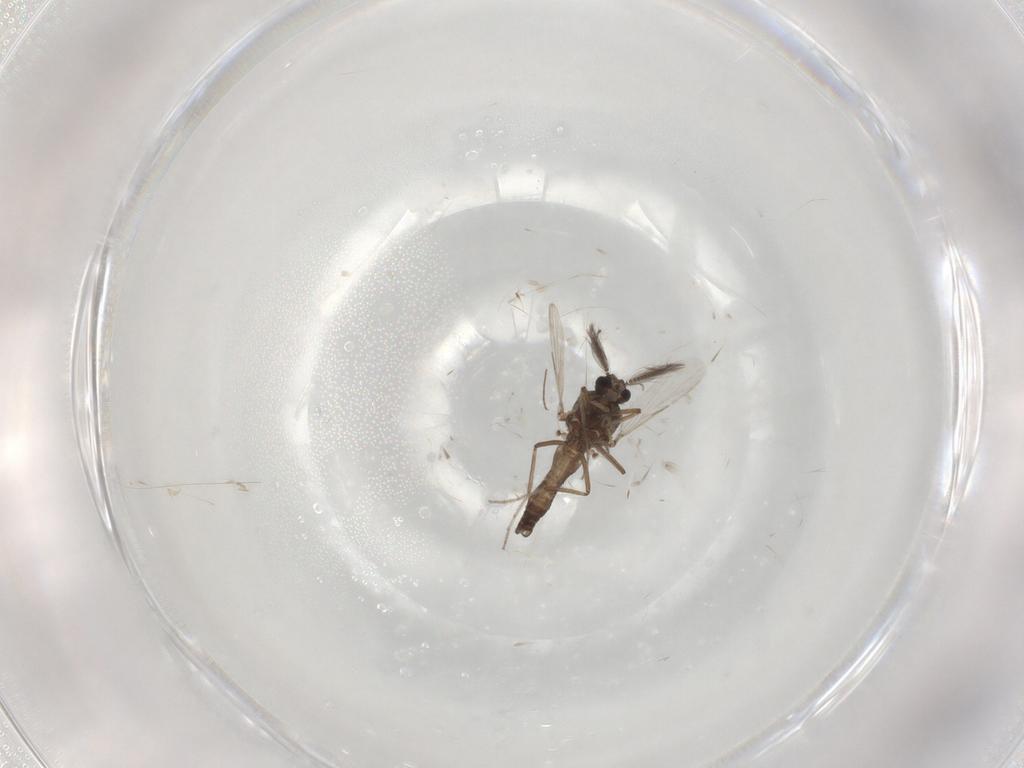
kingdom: Animalia
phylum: Arthropoda
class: Insecta
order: Diptera
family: Ceratopogonidae
